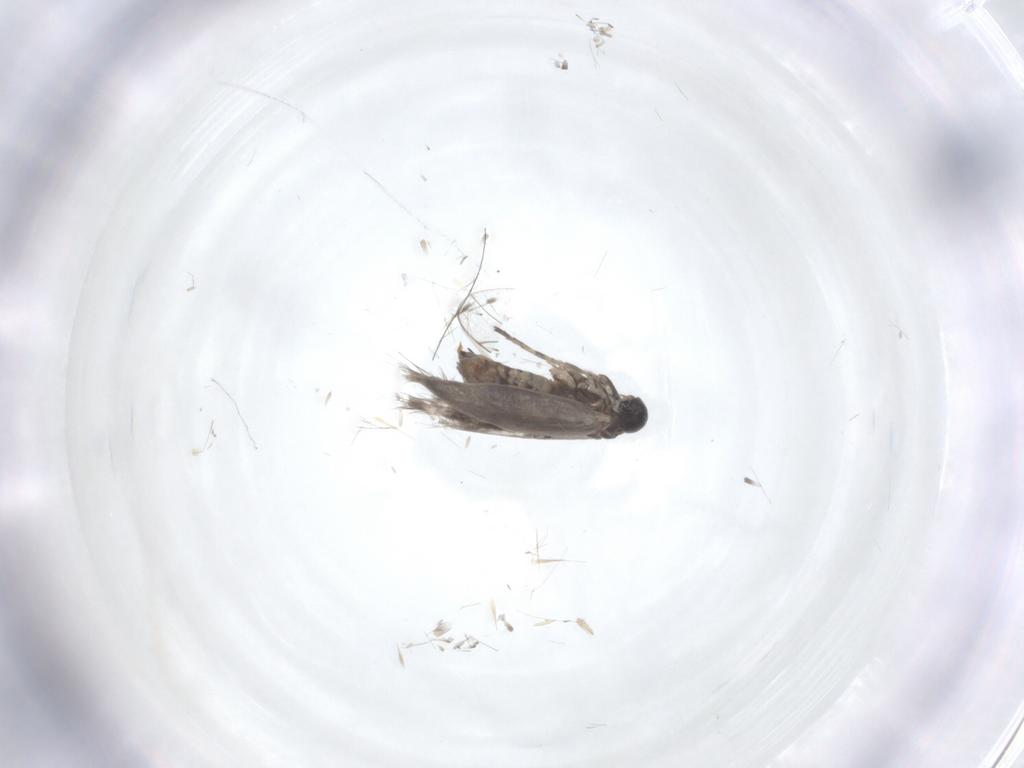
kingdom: Animalia
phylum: Arthropoda
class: Insecta
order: Lepidoptera
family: Heliozelidae
